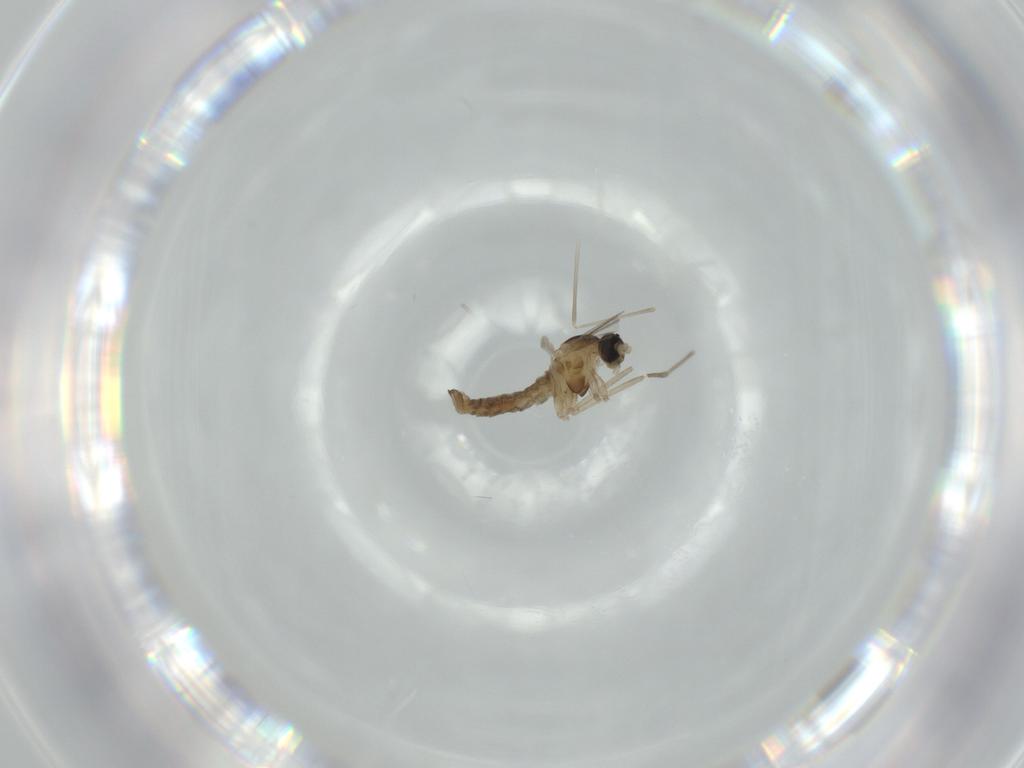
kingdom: Animalia
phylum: Arthropoda
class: Insecta
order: Diptera
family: Cecidomyiidae
